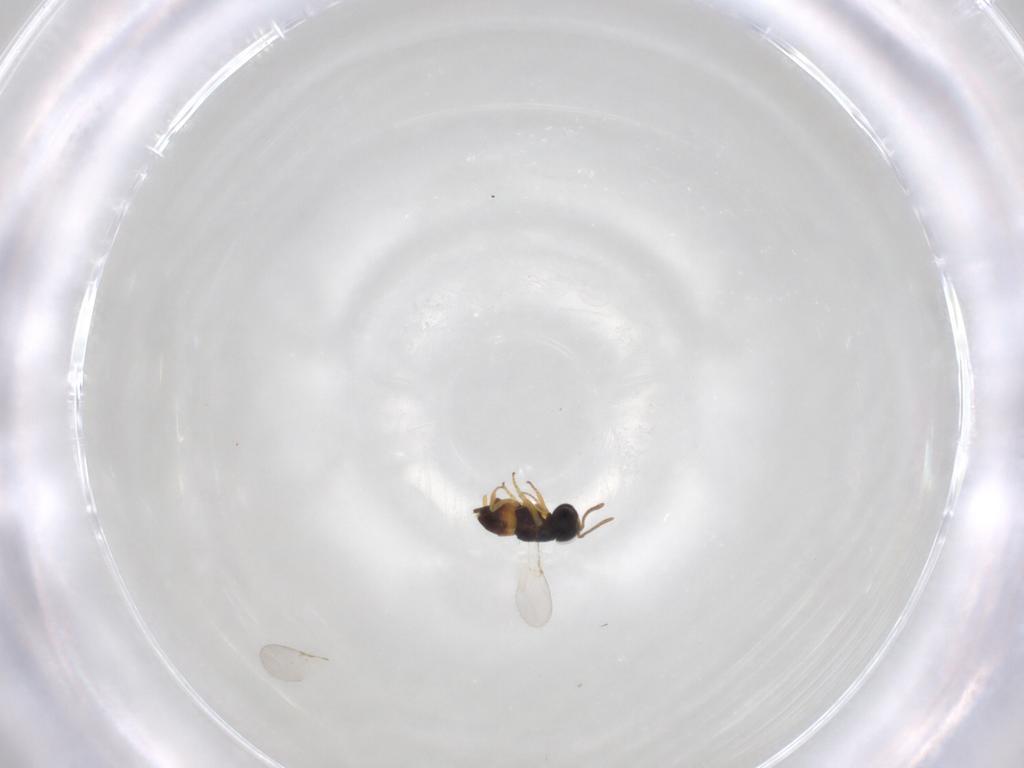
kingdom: Animalia
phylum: Arthropoda
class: Insecta
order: Hymenoptera
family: Encyrtidae
